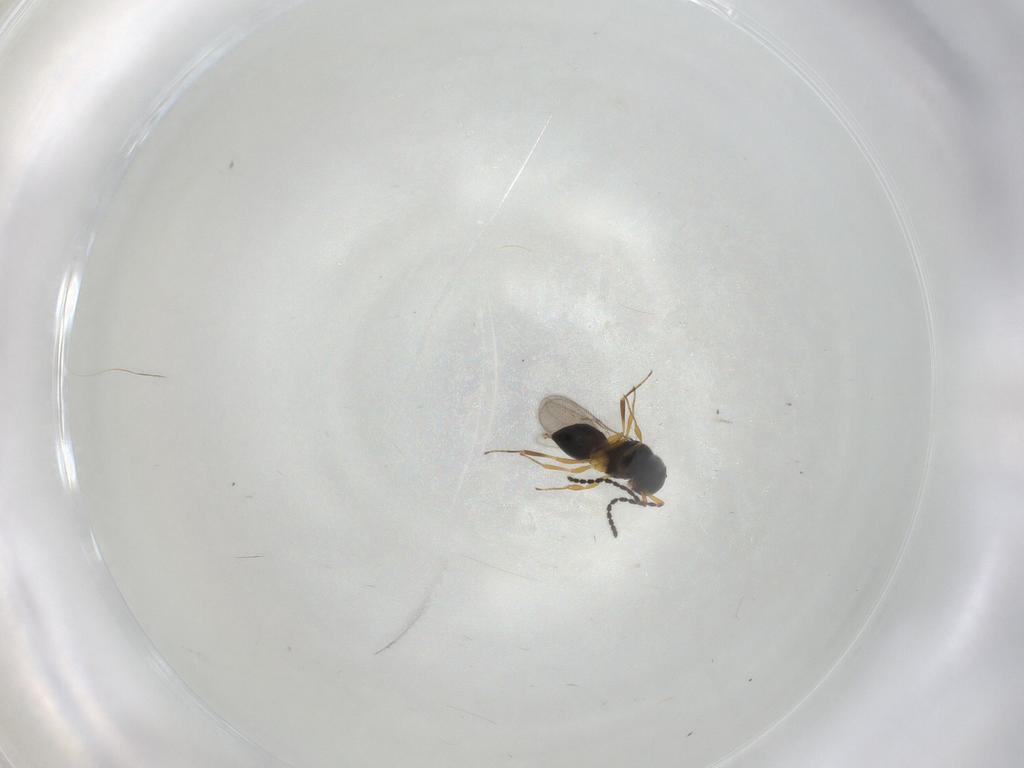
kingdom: Animalia
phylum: Arthropoda
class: Insecta
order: Hymenoptera
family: Scelionidae
